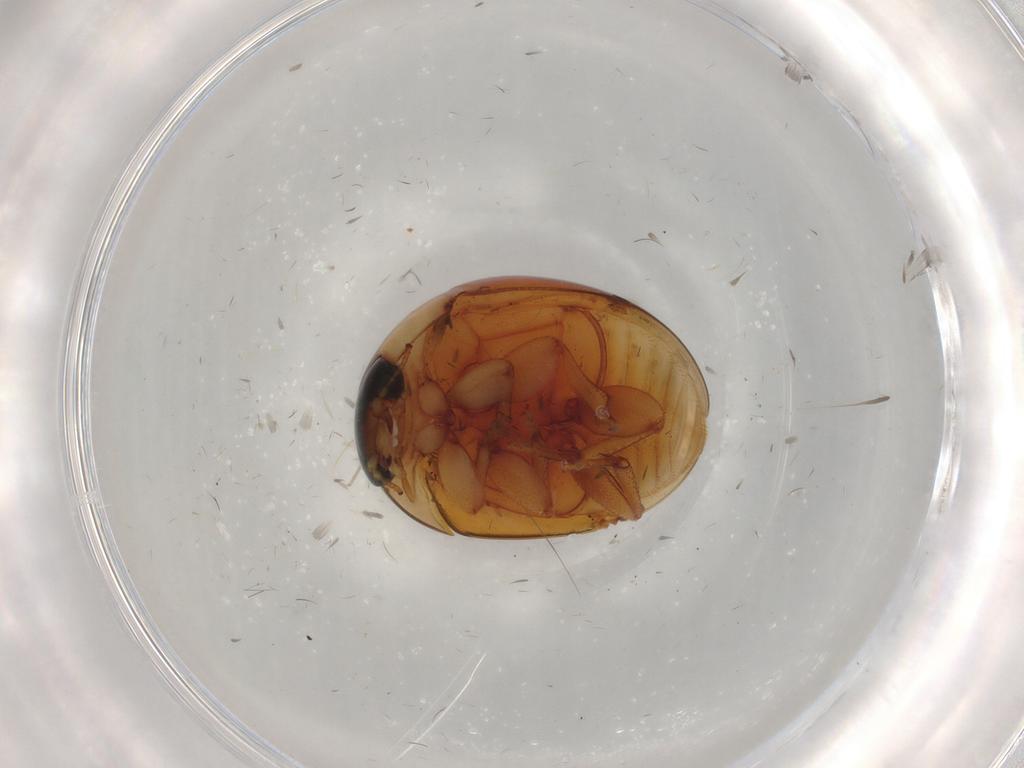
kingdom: Animalia
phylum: Arthropoda
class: Insecta
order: Coleoptera
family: Phalacridae
